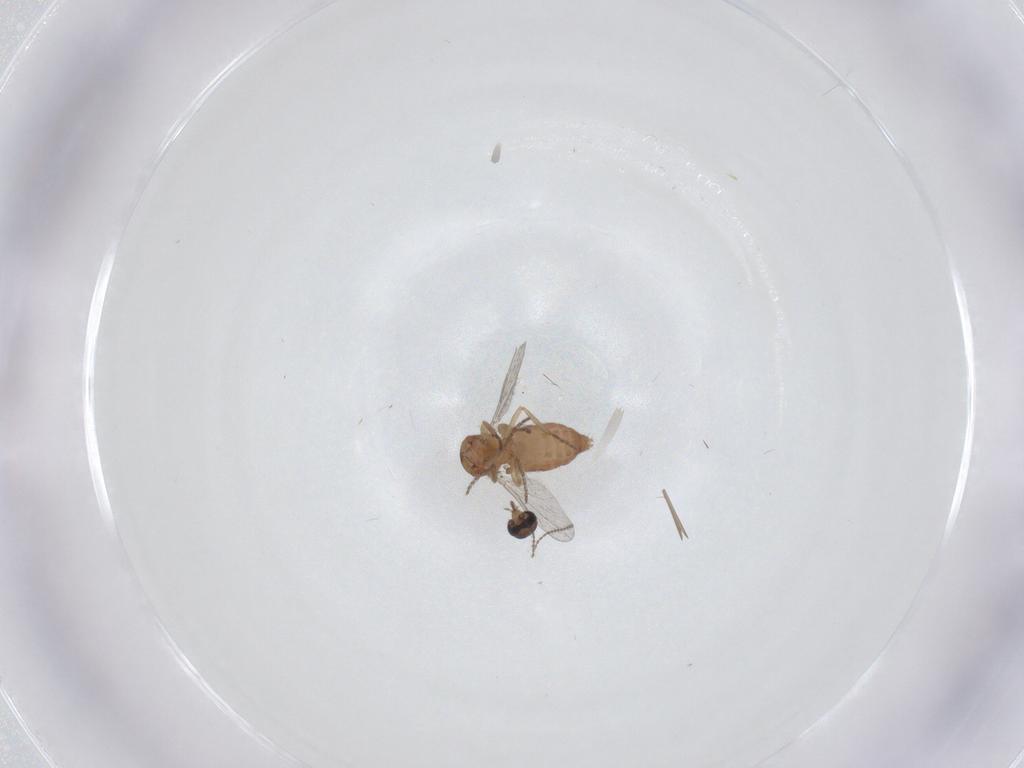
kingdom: Animalia
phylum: Arthropoda
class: Insecta
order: Diptera
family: Ceratopogonidae
